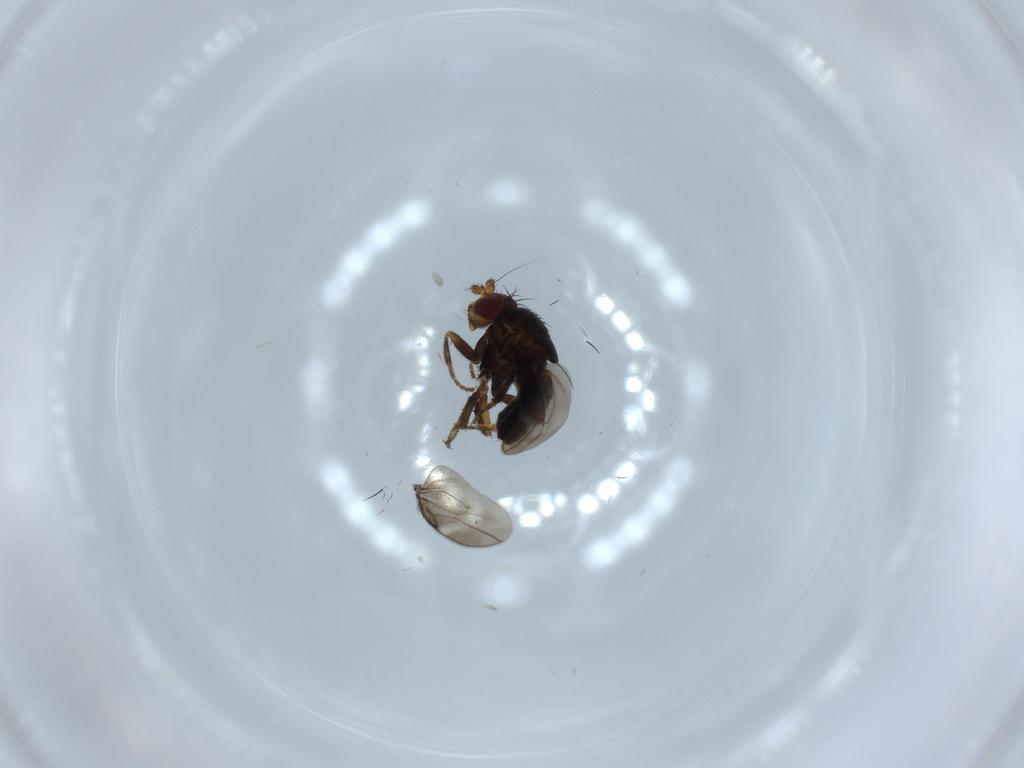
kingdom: Animalia
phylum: Arthropoda
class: Insecta
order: Diptera
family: Sphaeroceridae
